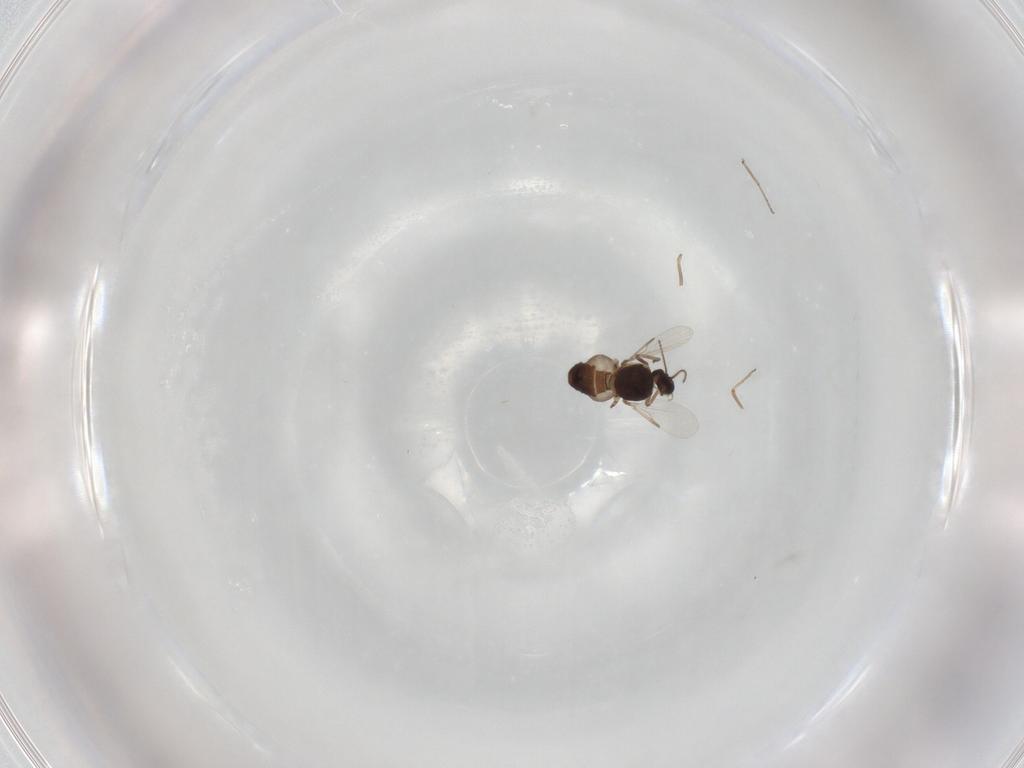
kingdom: Animalia
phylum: Arthropoda
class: Insecta
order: Diptera
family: Ceratopogonidae
